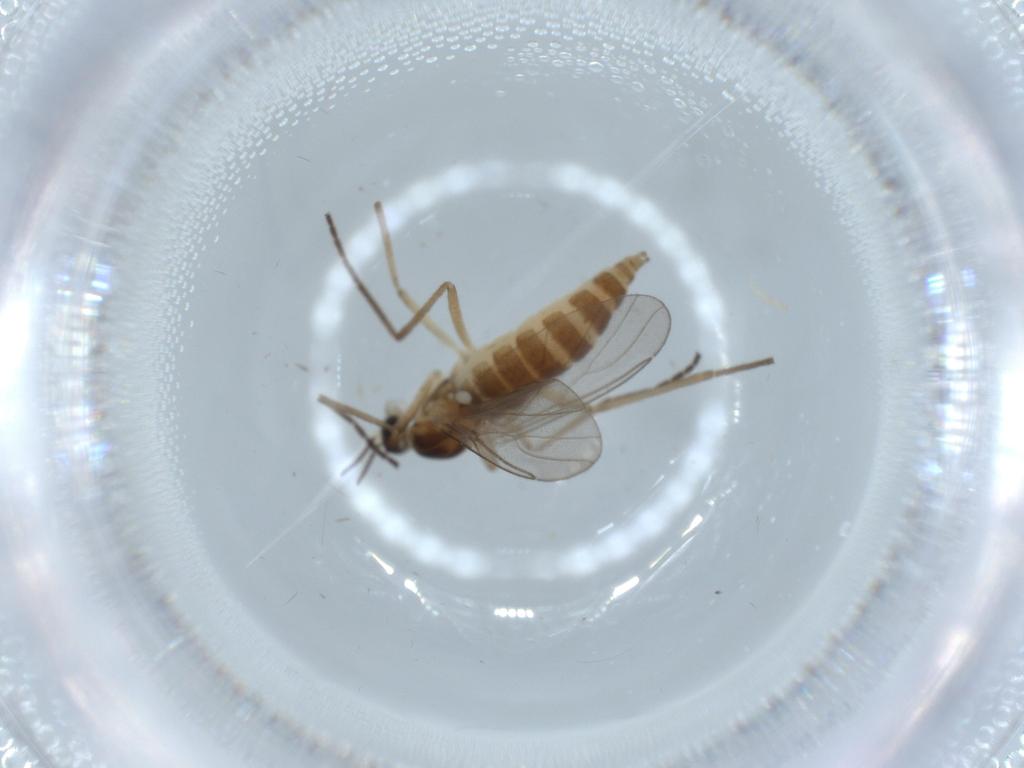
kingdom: Animalia
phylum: Arthropoda
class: Insecta
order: Diptera
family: Cecidomyiidae
